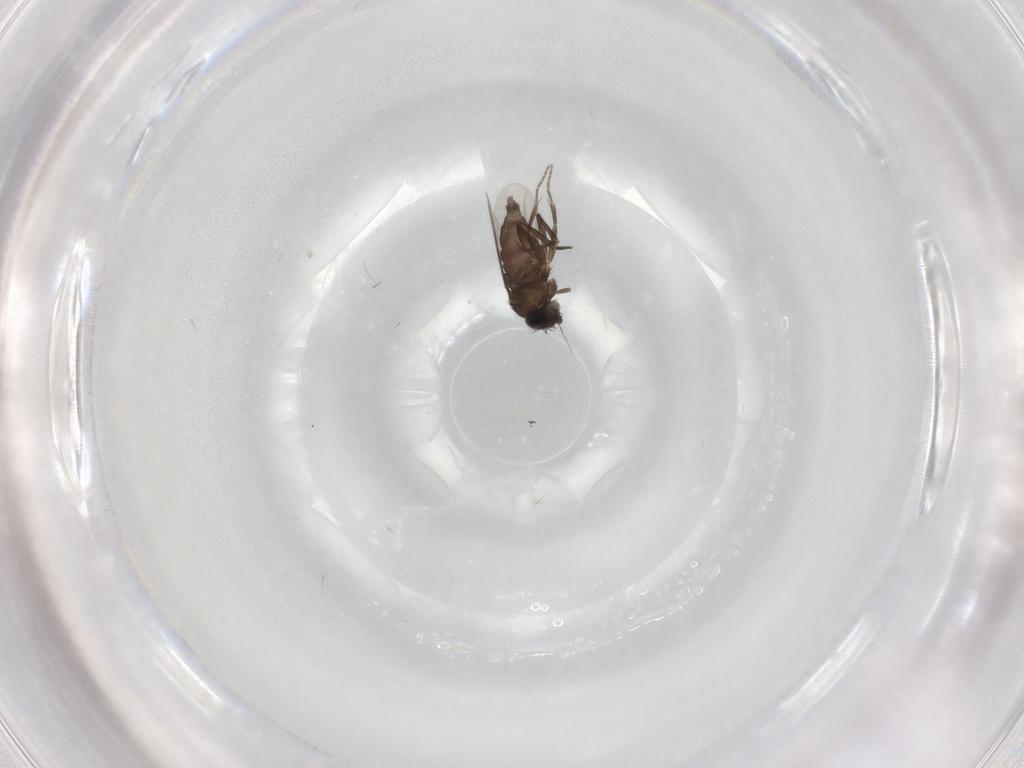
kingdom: Animalia
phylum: Arthropoda
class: Insecta
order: Diptera
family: Phoridae
